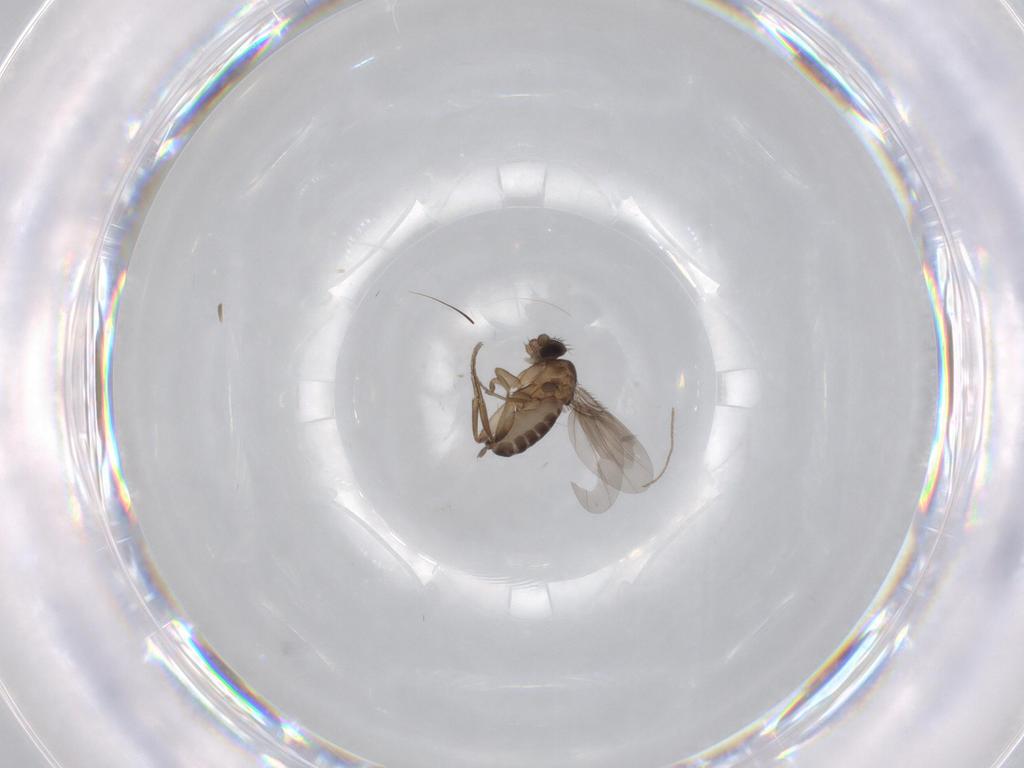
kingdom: Animalia
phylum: Arthropoda
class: Insecta
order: Diptera
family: Phoridae
